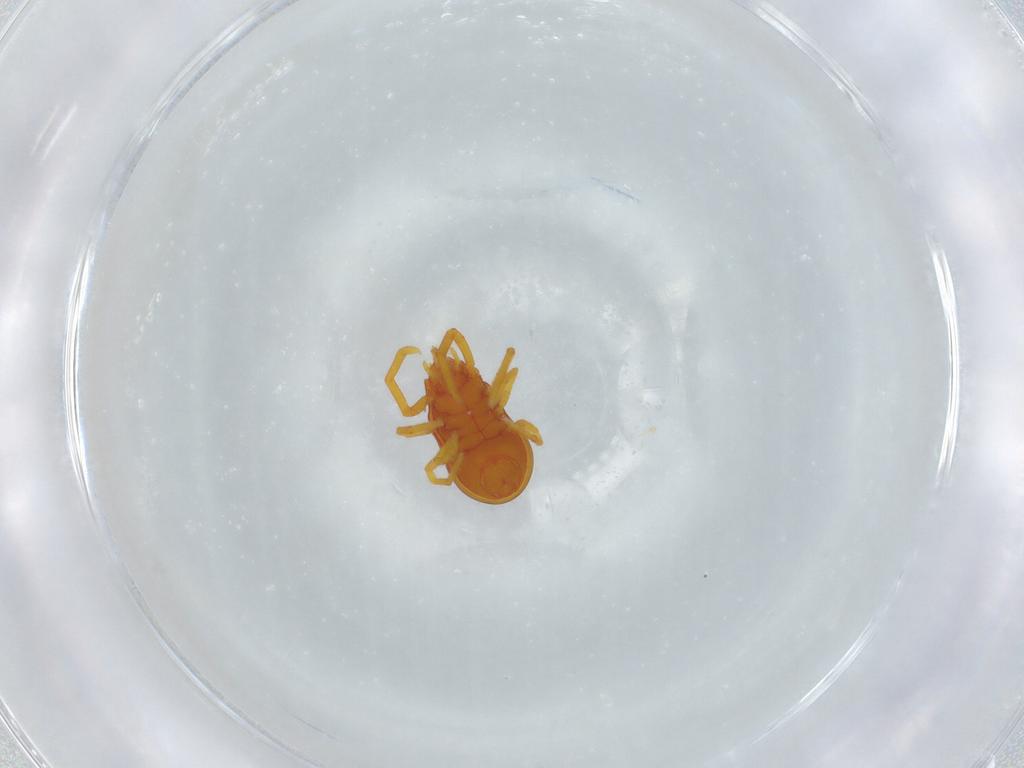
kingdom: Animalia
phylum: Arthropoda
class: Arachnida
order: Trombidiformes
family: Labidostommidae
